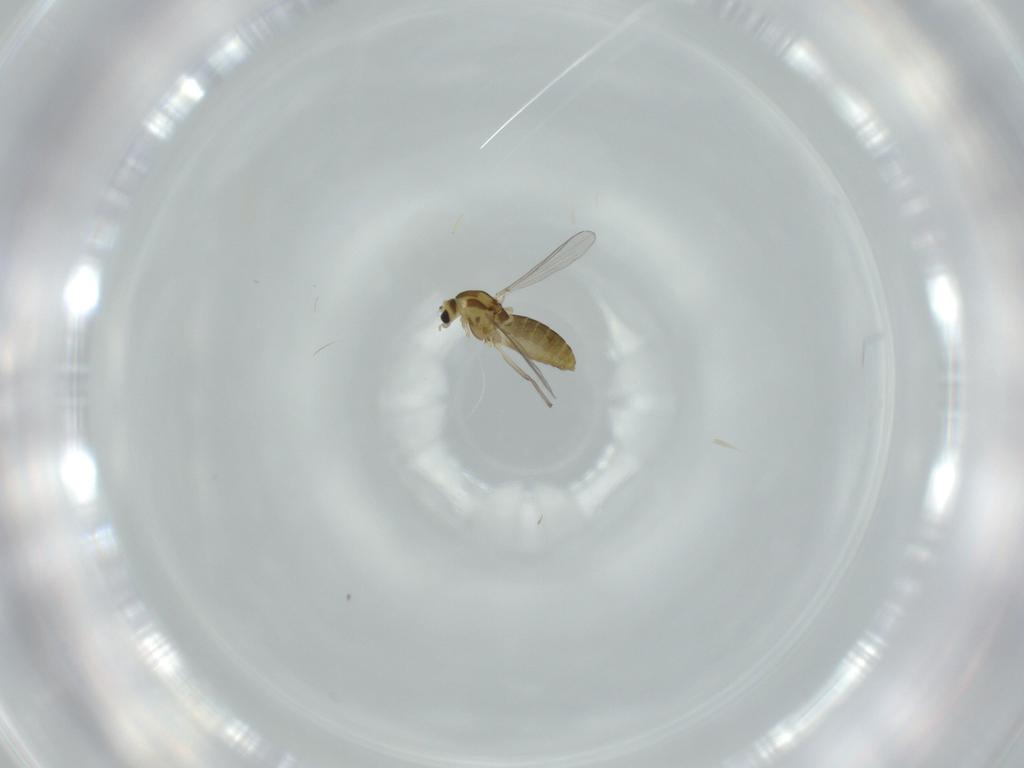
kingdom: Animalia
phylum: Arthropoda
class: Insecta
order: Diptera
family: Chironomidae
